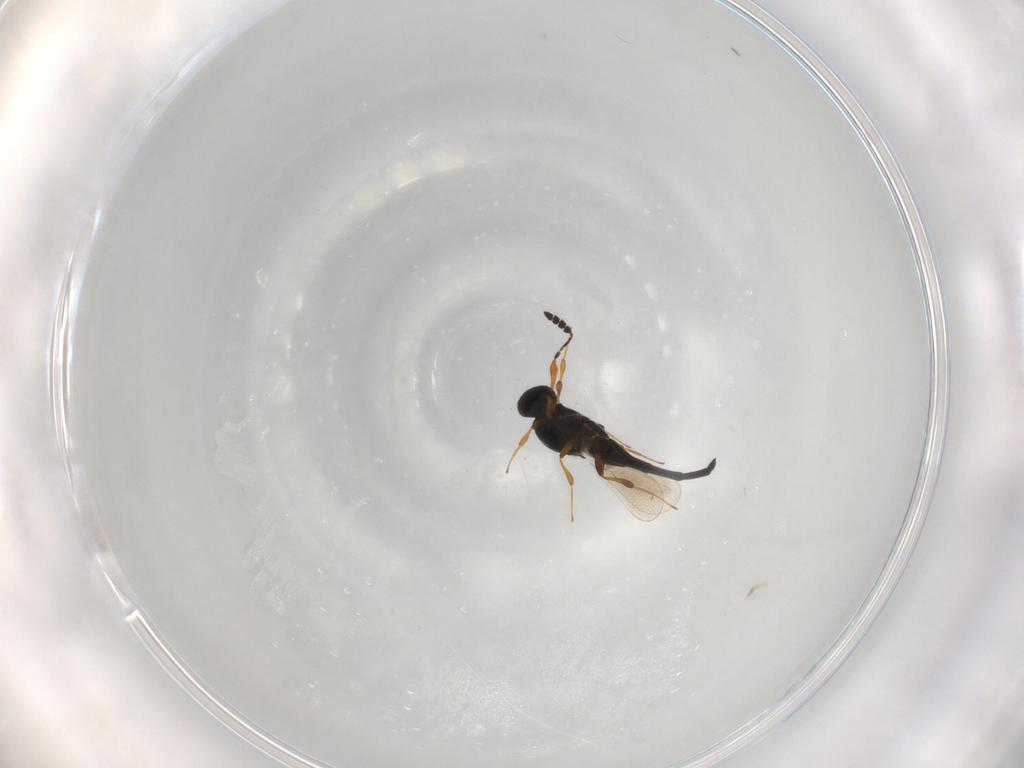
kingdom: Animalia
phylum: Arthropoda
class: Insecta
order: Hymenoptera
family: Platygastridae
